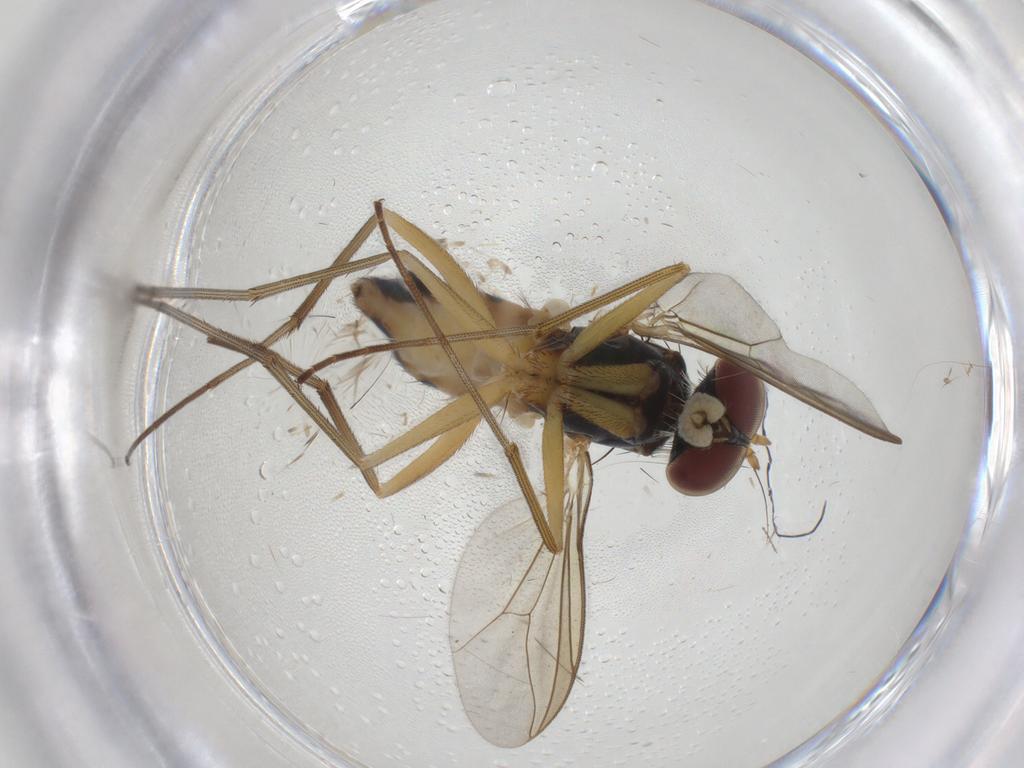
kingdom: Animalia
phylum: Arthropoda
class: Insecta
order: Diptera
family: Dolichopodidae
